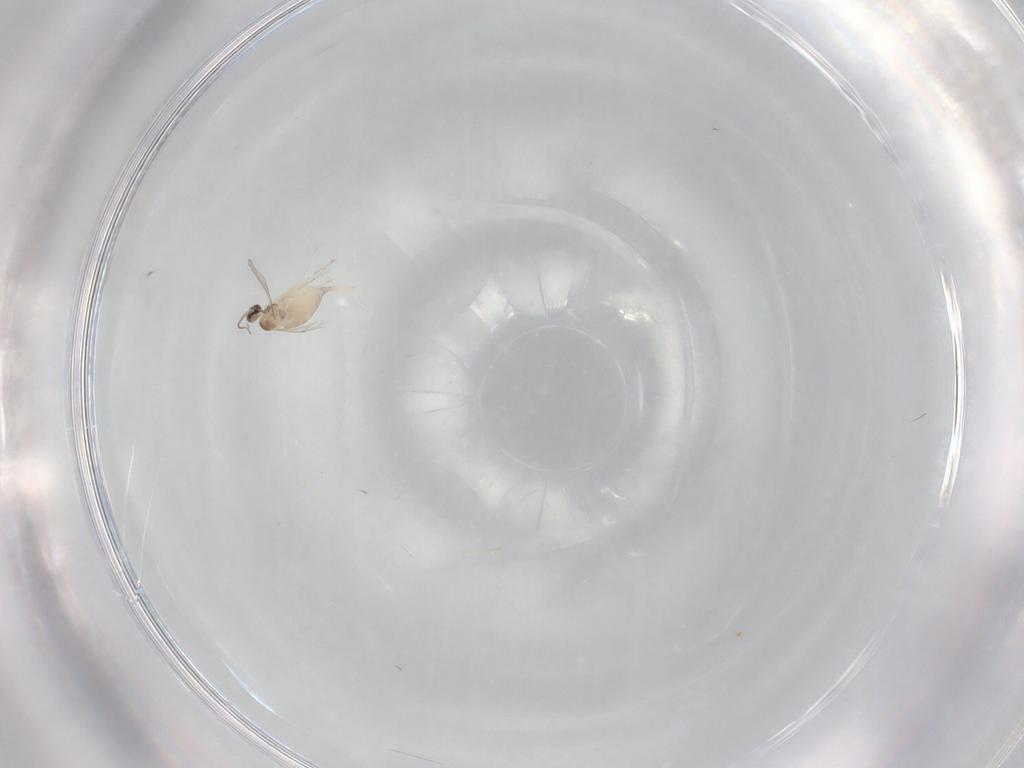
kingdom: Animalia
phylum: Arthropoda
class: Insecta
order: Diptera
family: Sarcophagidae
